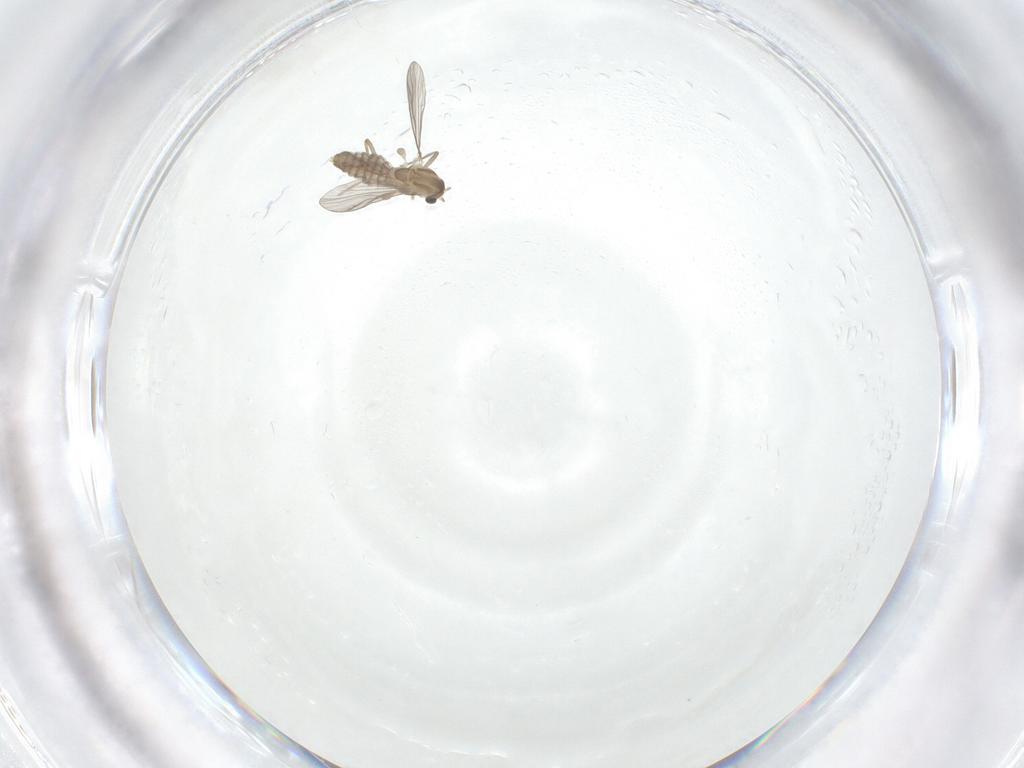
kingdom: Animalia
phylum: Arthropoda
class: Insecta
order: Diptera
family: Chironomidae
